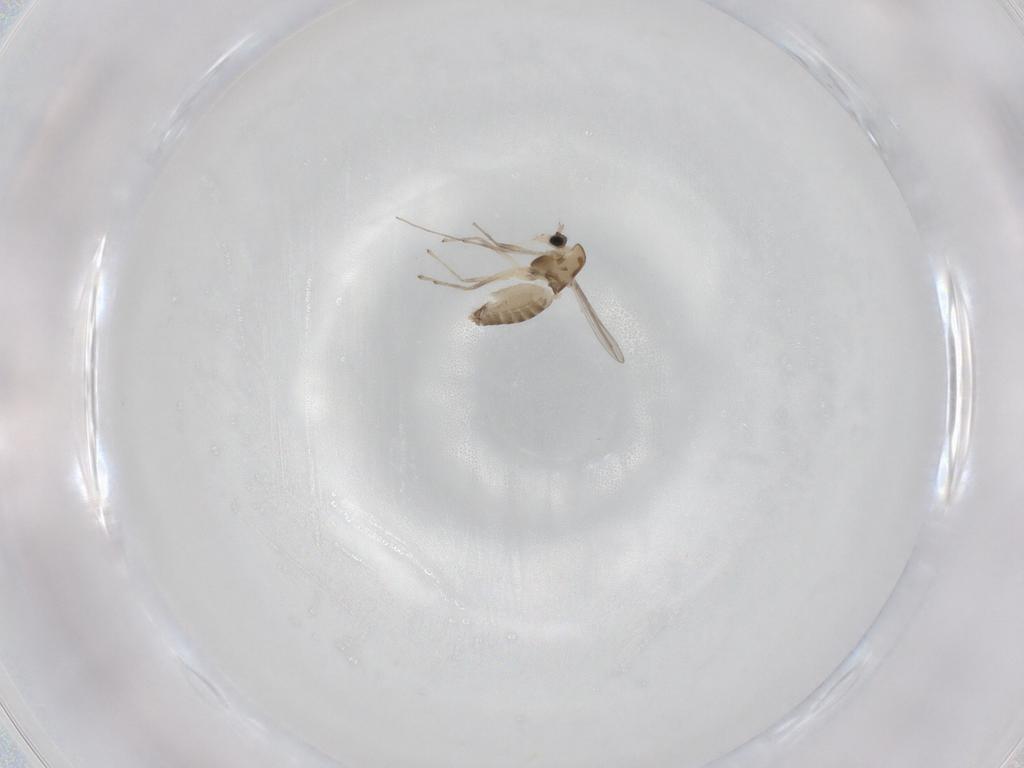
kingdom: Animalia
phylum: Arthropoda
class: Insecta
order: Diptera
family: Chironomidae
